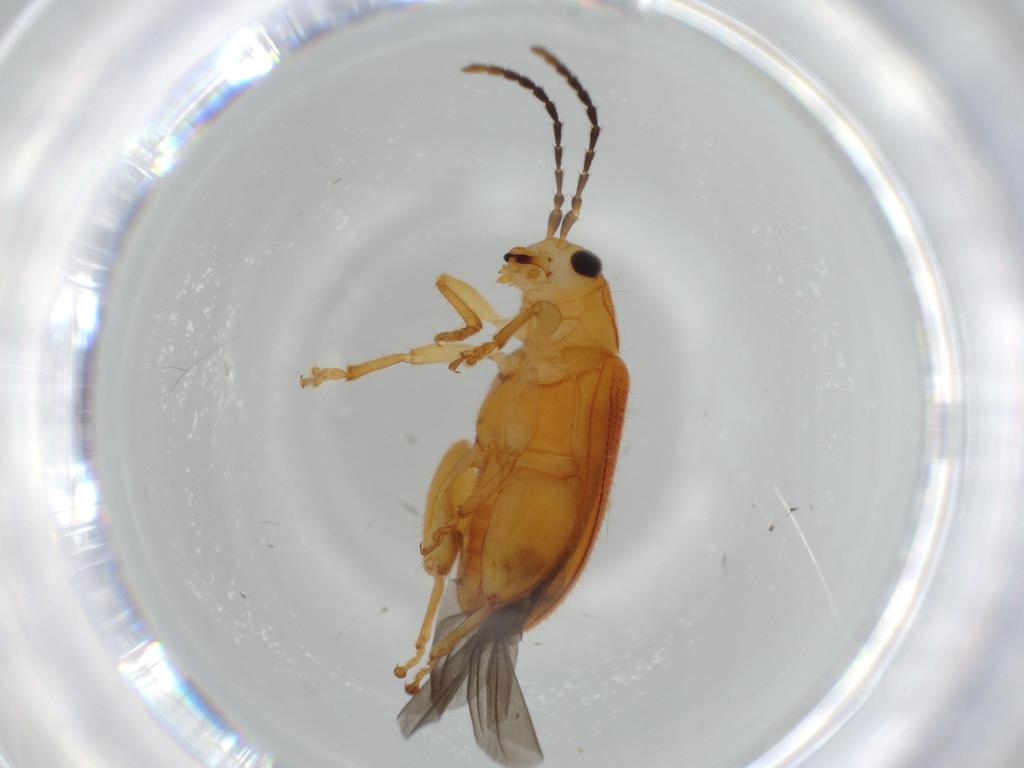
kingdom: Animalia
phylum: Arthropoda
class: Insecta
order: Coleoptera
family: Chrysomelidae
